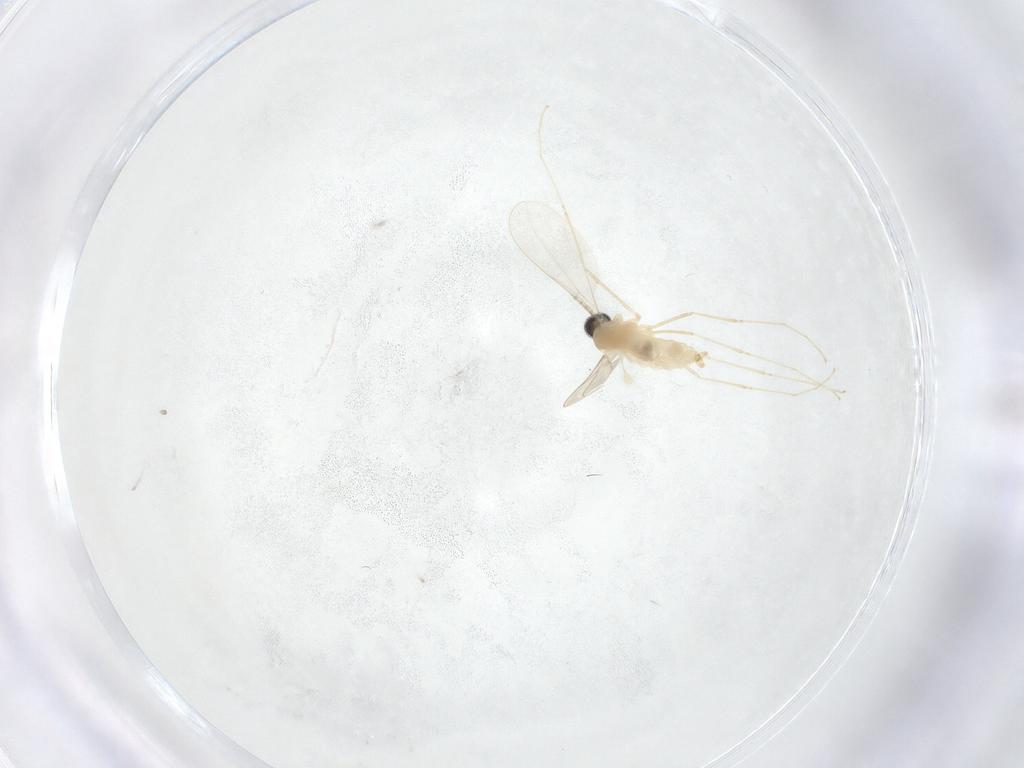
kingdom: Animalia
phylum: Arthropoda
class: Insecta
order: Diptera
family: Cecidomyiidae
